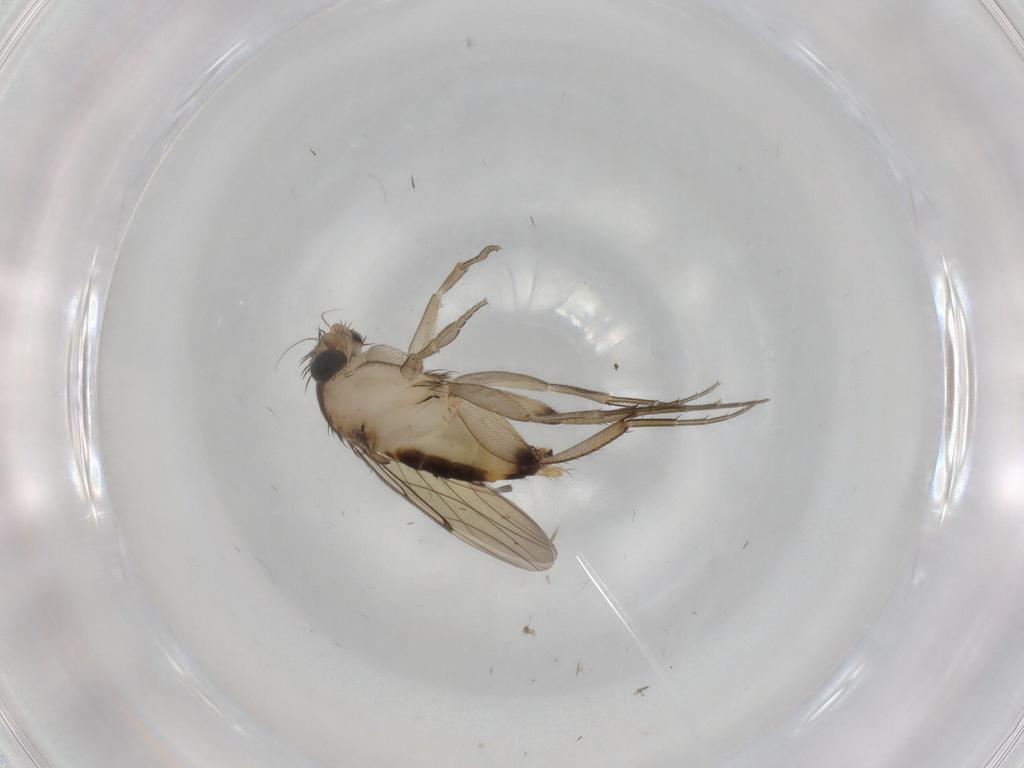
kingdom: Animalia
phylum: Arthropoda
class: Insecta
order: Diptera
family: Phoridae
